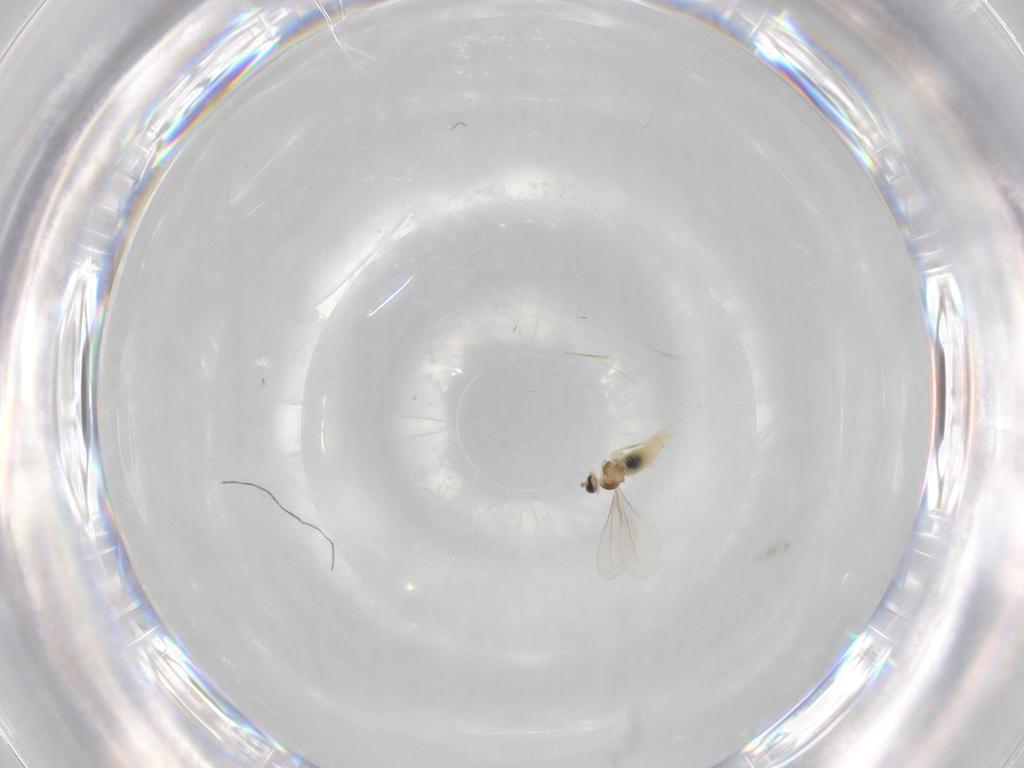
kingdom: Animalia
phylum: Arthropoda
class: Insecta
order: Diptera
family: Cecidomyiidae
